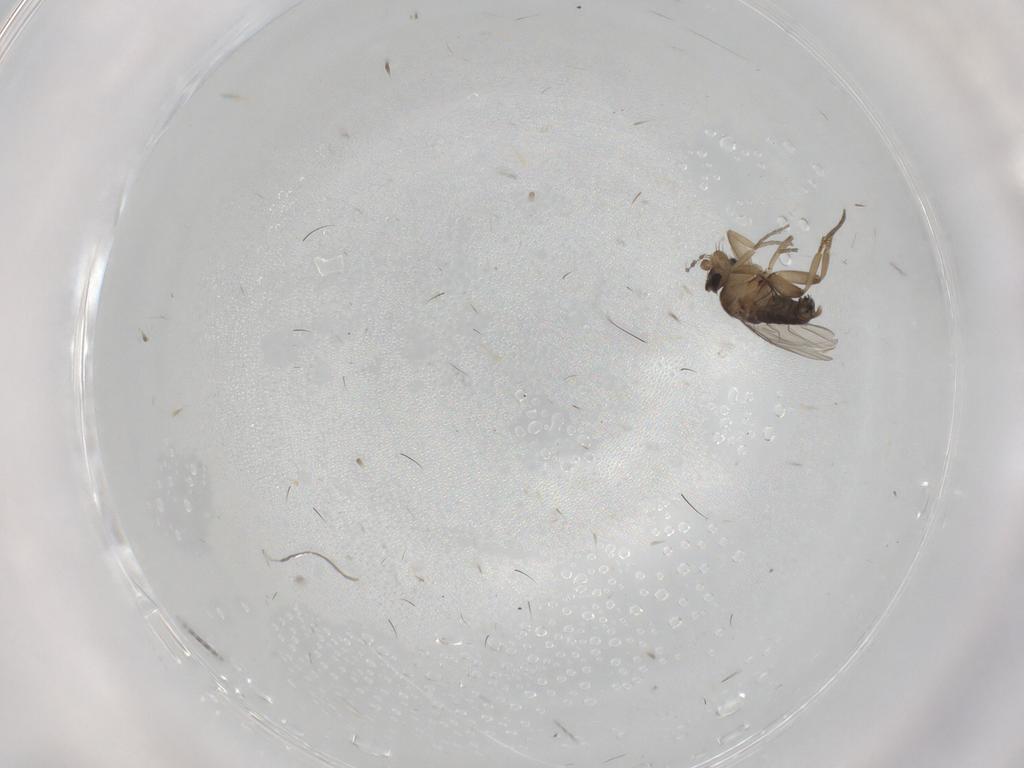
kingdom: Animalia
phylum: Arthropoda
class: Insecta
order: Diptera
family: Phoridae
